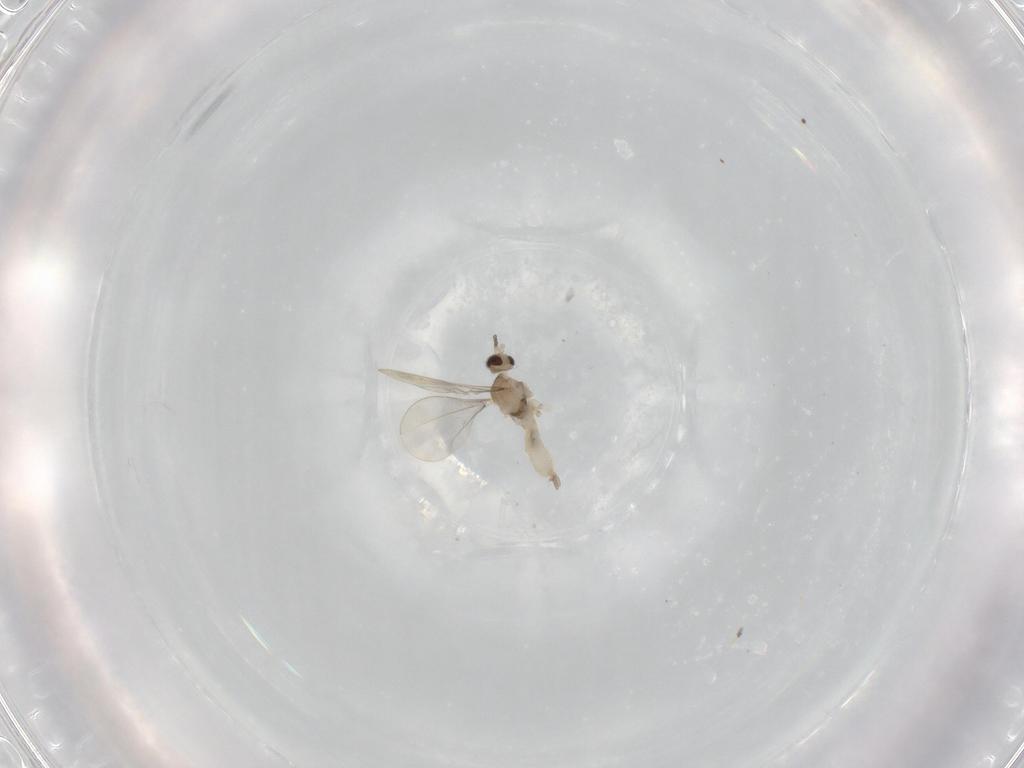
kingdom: Animalia
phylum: Arthropoda
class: Insecta
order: Diptera
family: Cecidomyiidae
